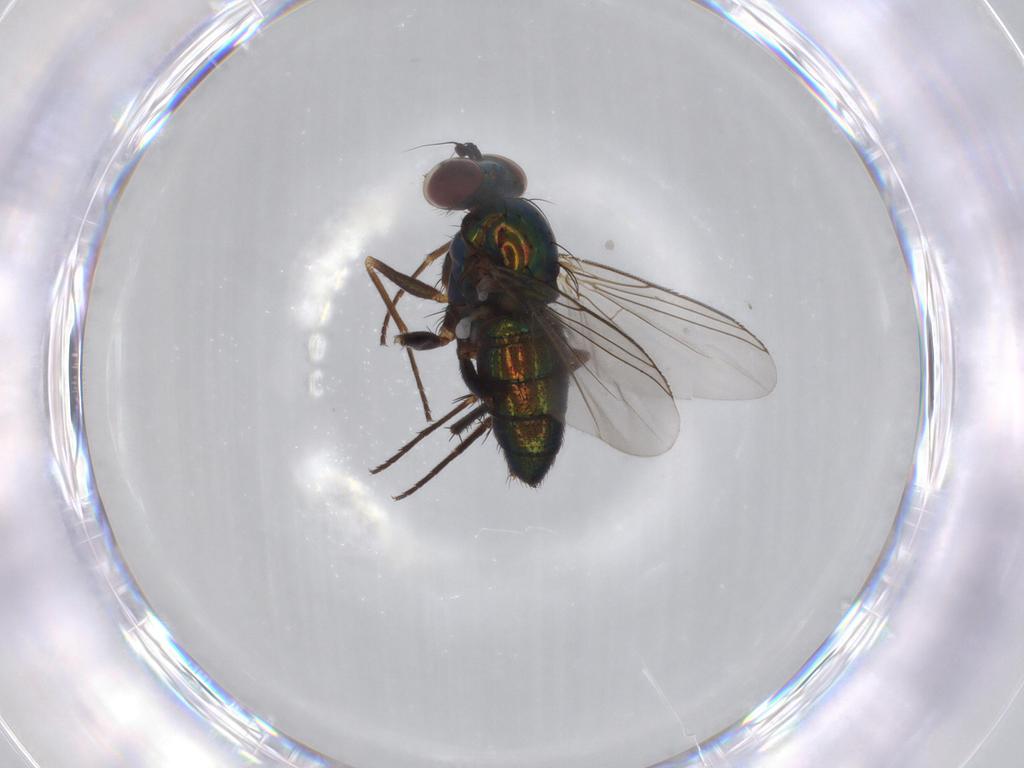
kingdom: Animalia
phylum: Arthropoda
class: Insecta
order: Diptera
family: Dolichopodidae
